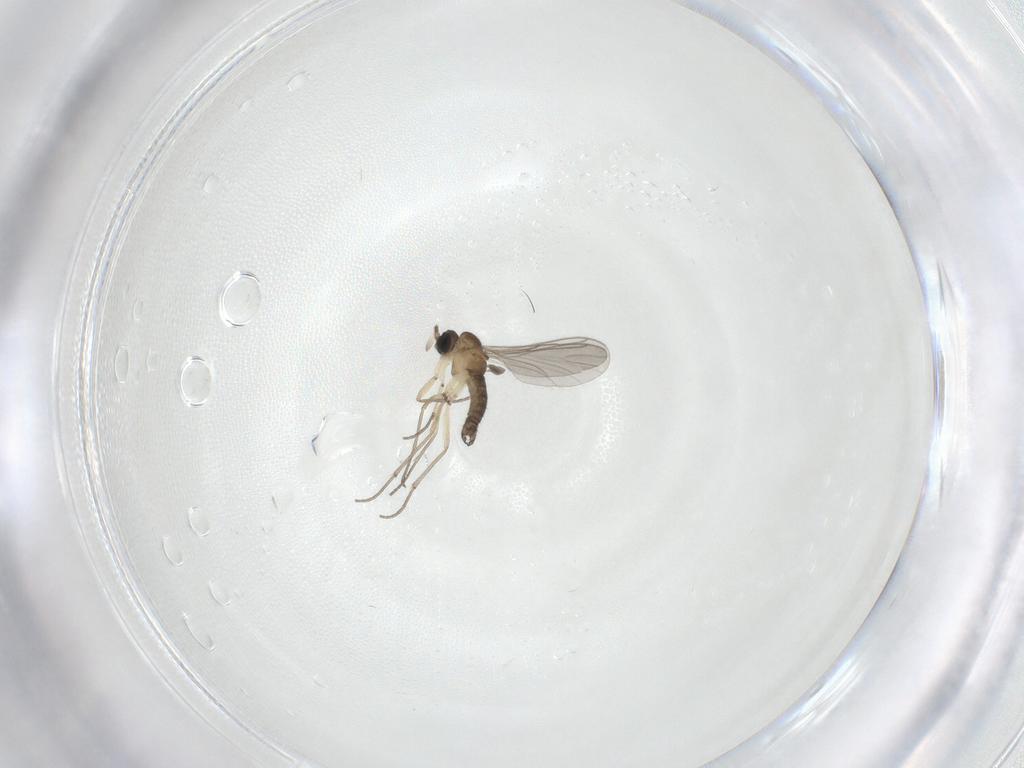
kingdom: Animalia
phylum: Arthropoda
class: Insecta
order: Diptera
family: Sciaridae
